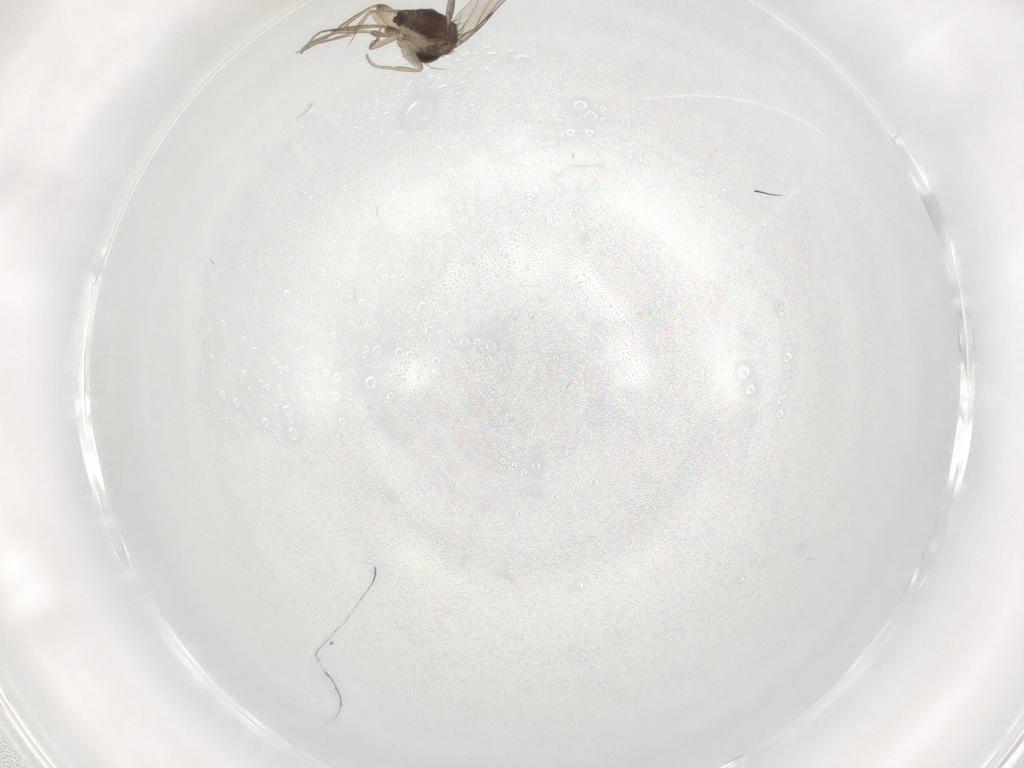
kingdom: Animalia
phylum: Arthropoda
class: Insecta
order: Diptera
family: Phoridae
